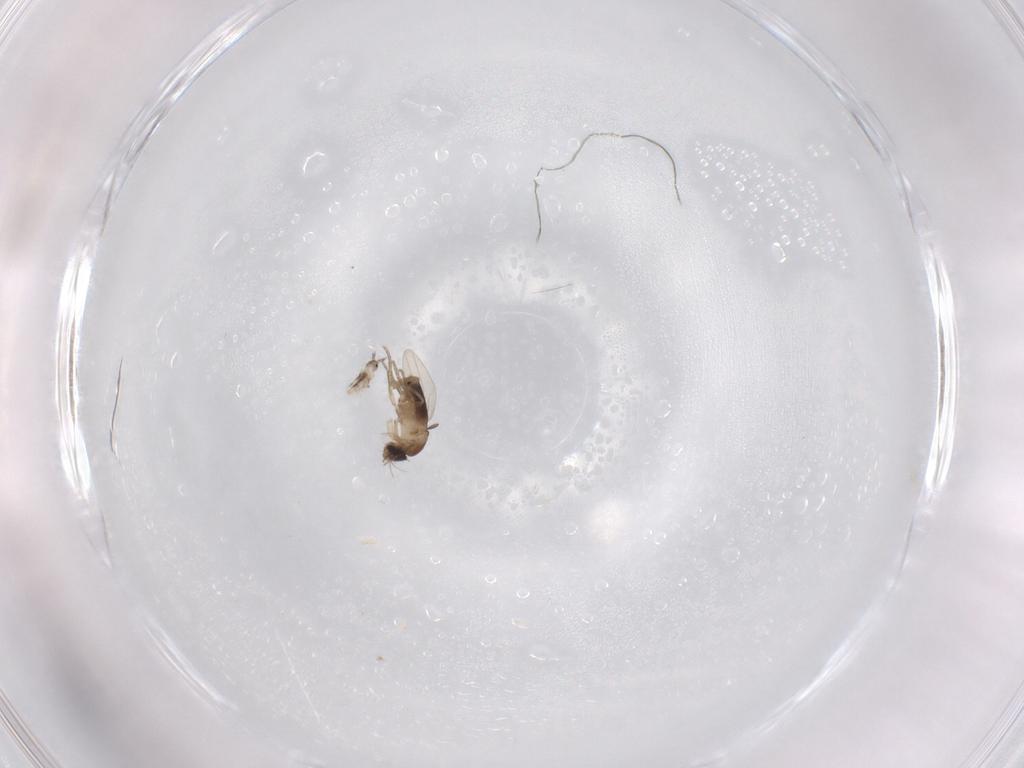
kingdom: Animalia
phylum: Arthropoda
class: Insecta
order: Diptera
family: Phoridae
